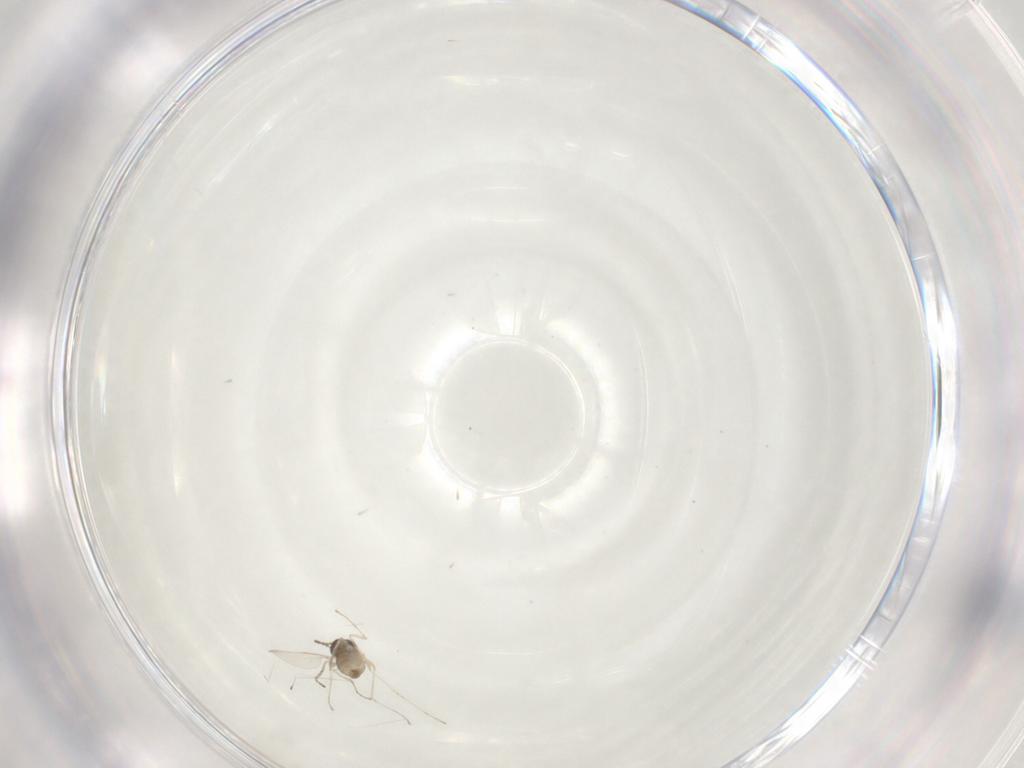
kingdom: Animalia
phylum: Arthropoda
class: Insecta
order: Diptera
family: Cecidomyiidae
